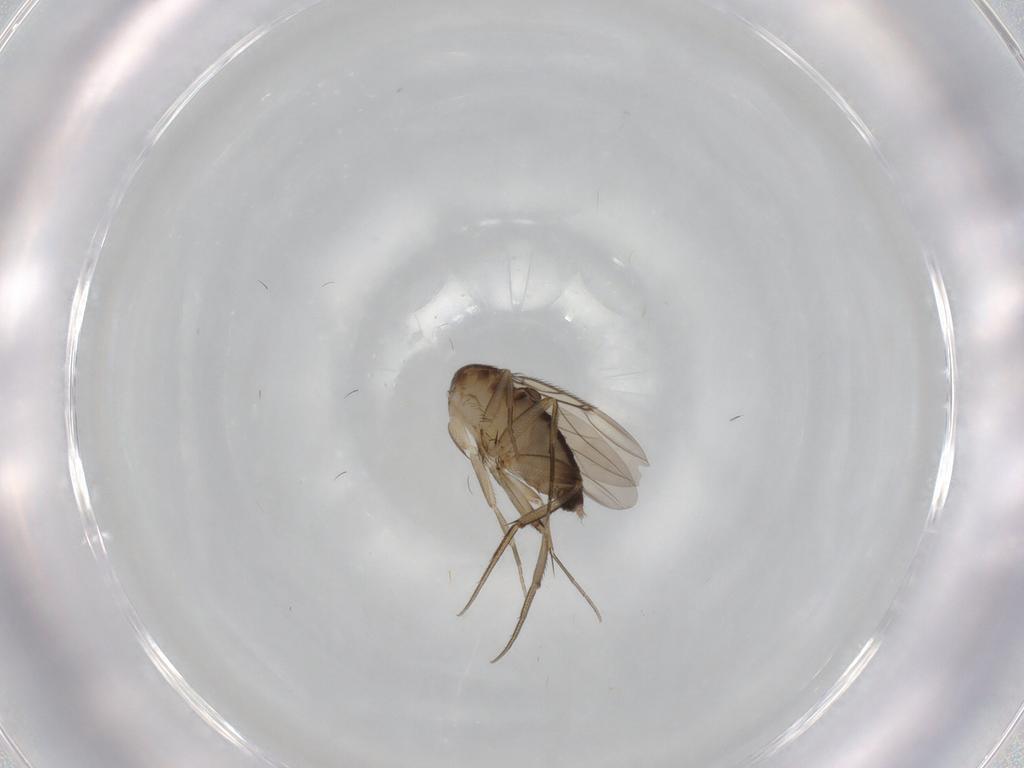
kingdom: Animalia
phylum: Arthropoda
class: Insecta
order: Diptera
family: Phoridae
